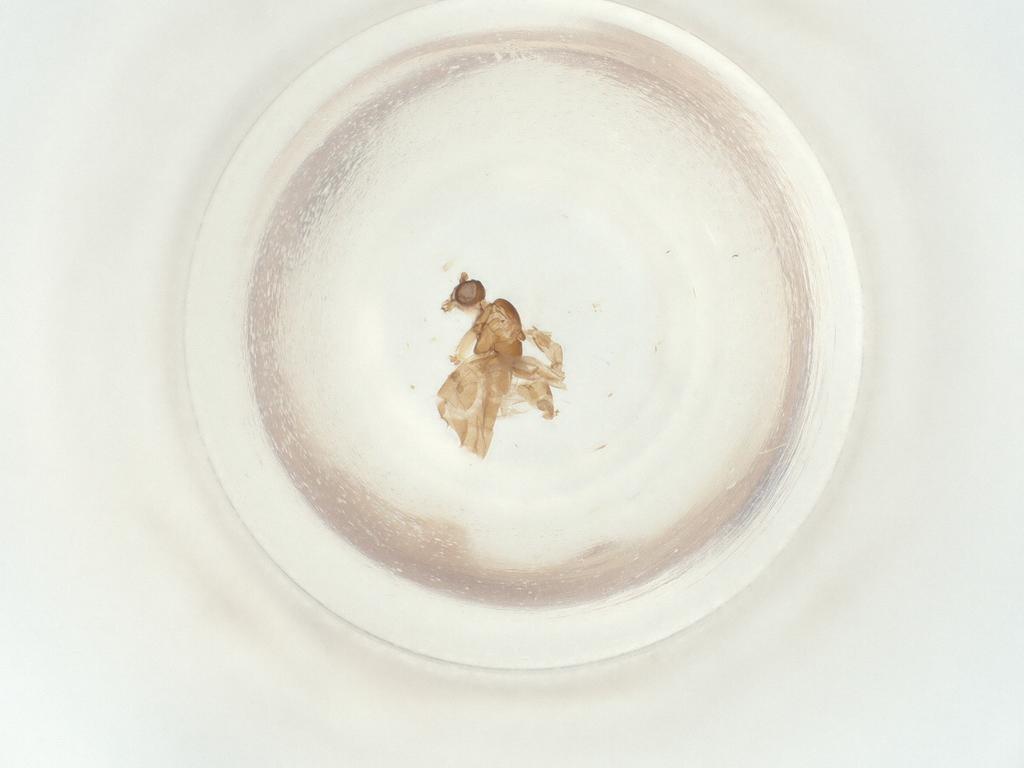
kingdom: Animalia
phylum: Arthropoda
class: Insecta
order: Diptera
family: Sciaridae
